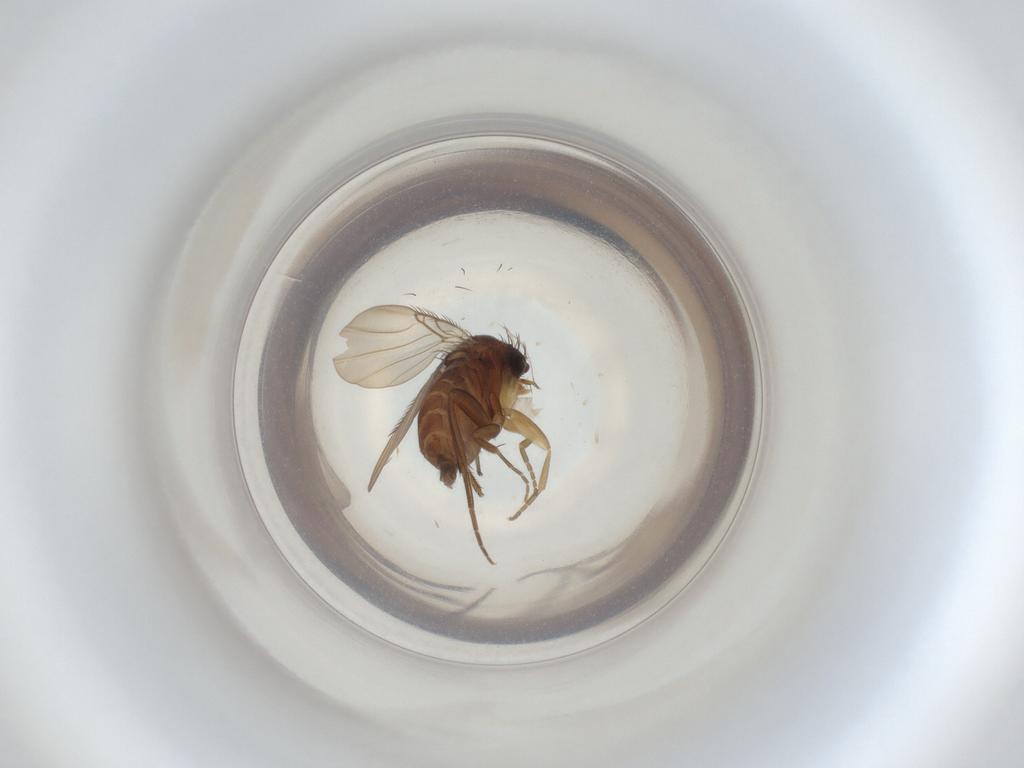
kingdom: Animalia
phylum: Arthropoda
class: Insecta
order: Diptera
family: Phoridae
